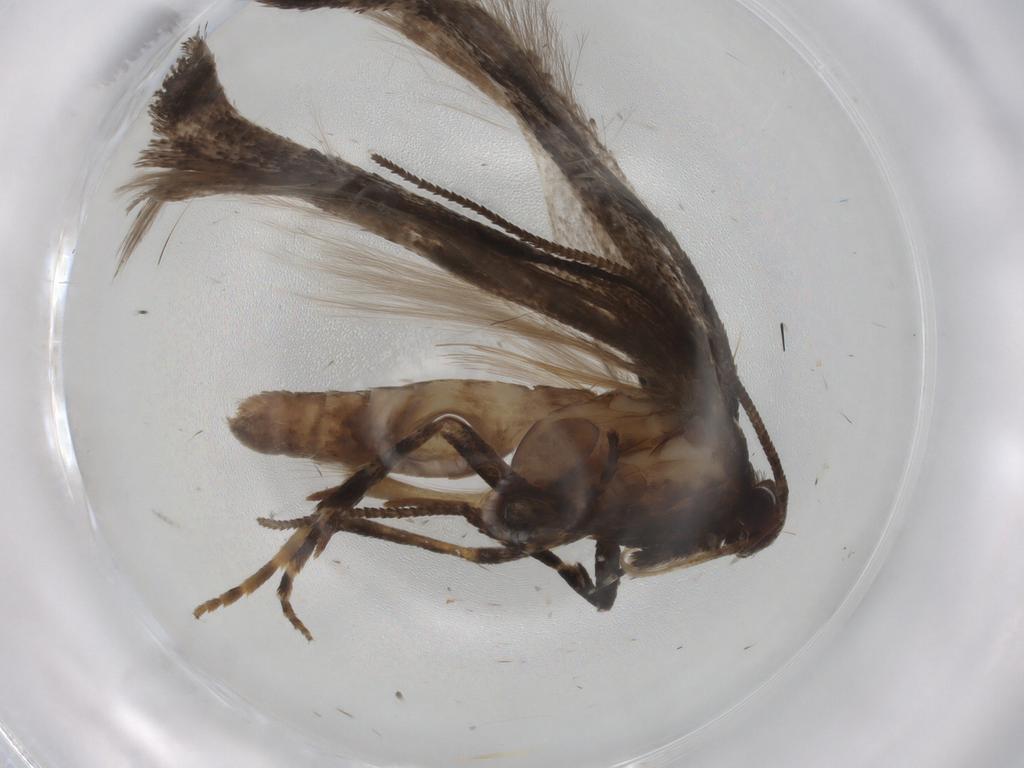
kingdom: Animalia
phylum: Arthropoda
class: Insecta
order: Lepidoptera
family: Gelechiidae
